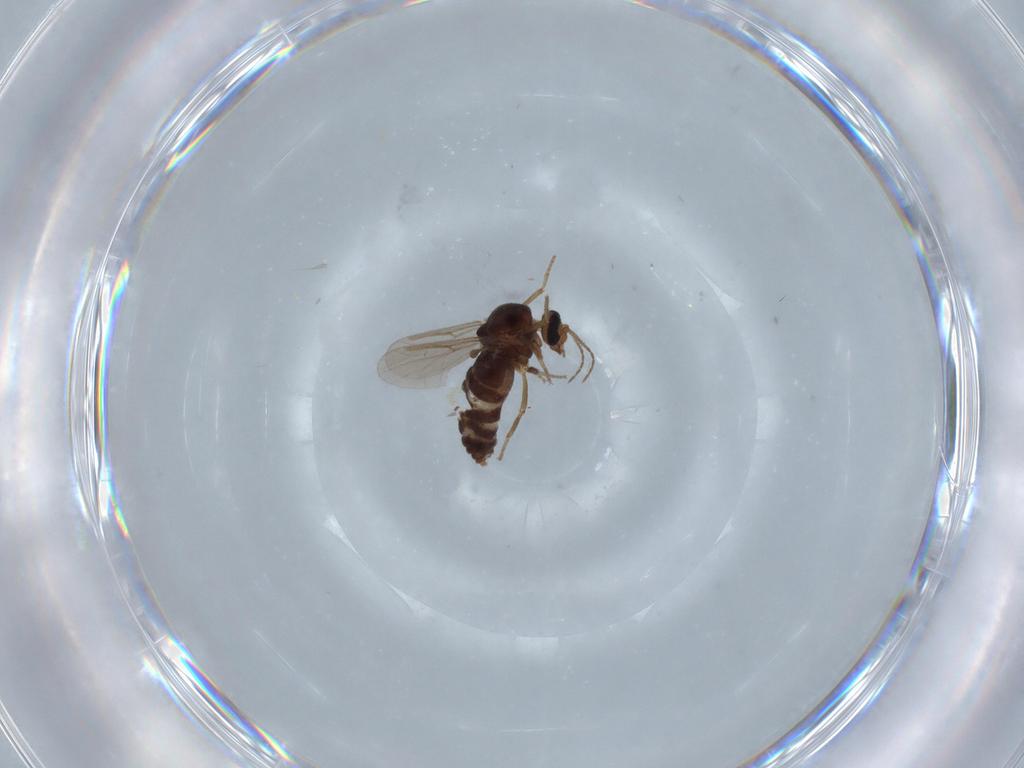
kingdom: Animalia
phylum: Arthropoda
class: Insecta
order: Diptera
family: Ceratopogonidae
